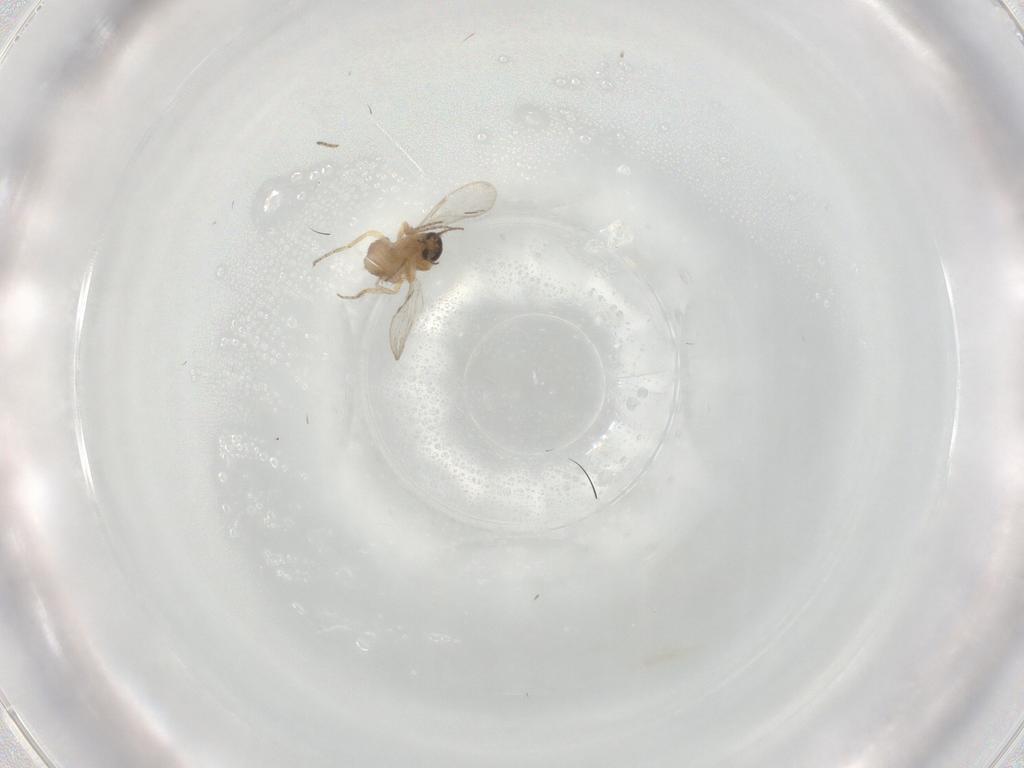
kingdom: Animalia
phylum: Arthropoda
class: Insecta
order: Diptera
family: Ceratopogonidae
